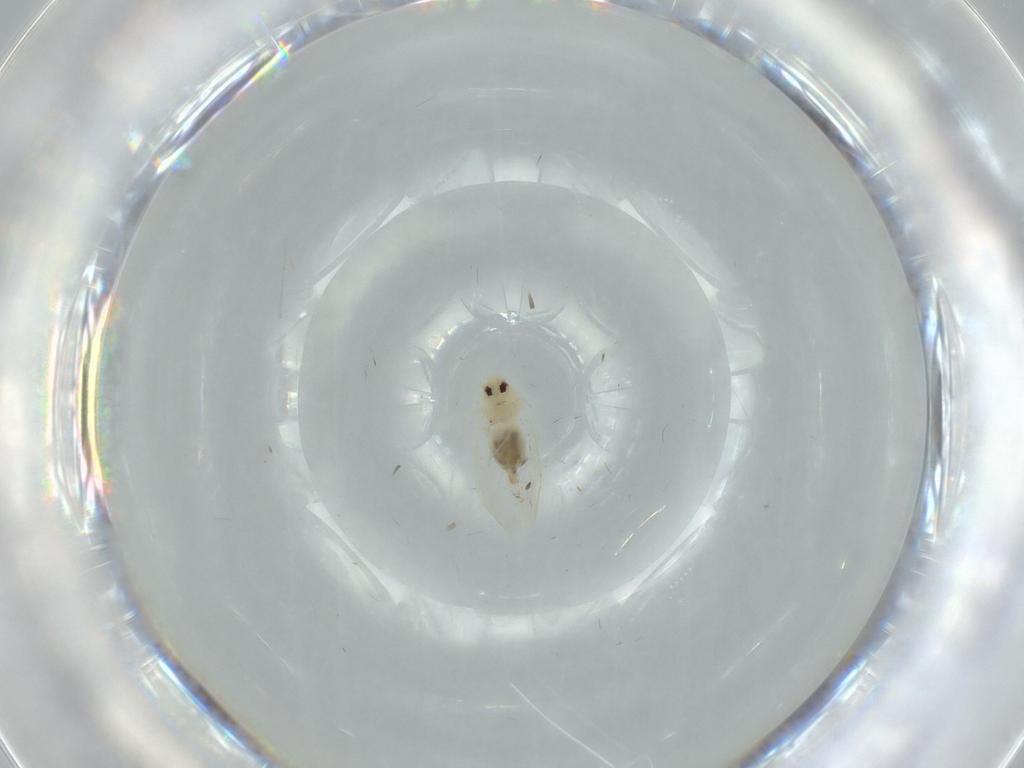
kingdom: Animalia
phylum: Arthropoda
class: Insecta
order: Hemiptera
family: Aleyrodidae
